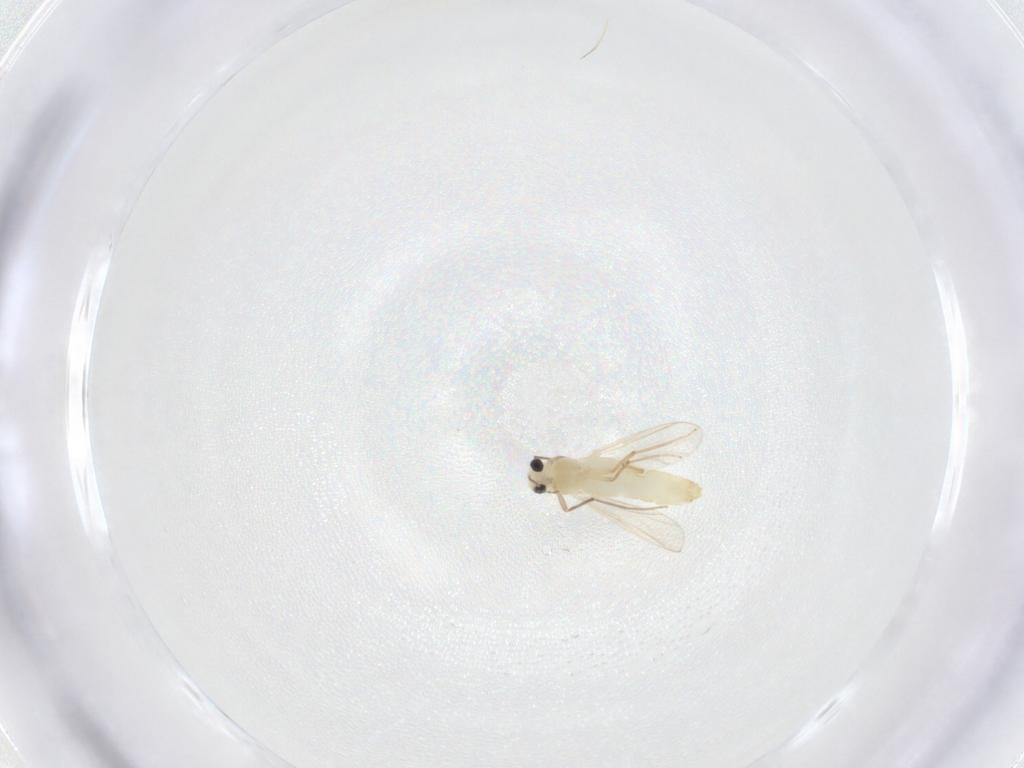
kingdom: Animalia
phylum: Arthropoda
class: Insecta
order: Diptera
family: Chironomidae
